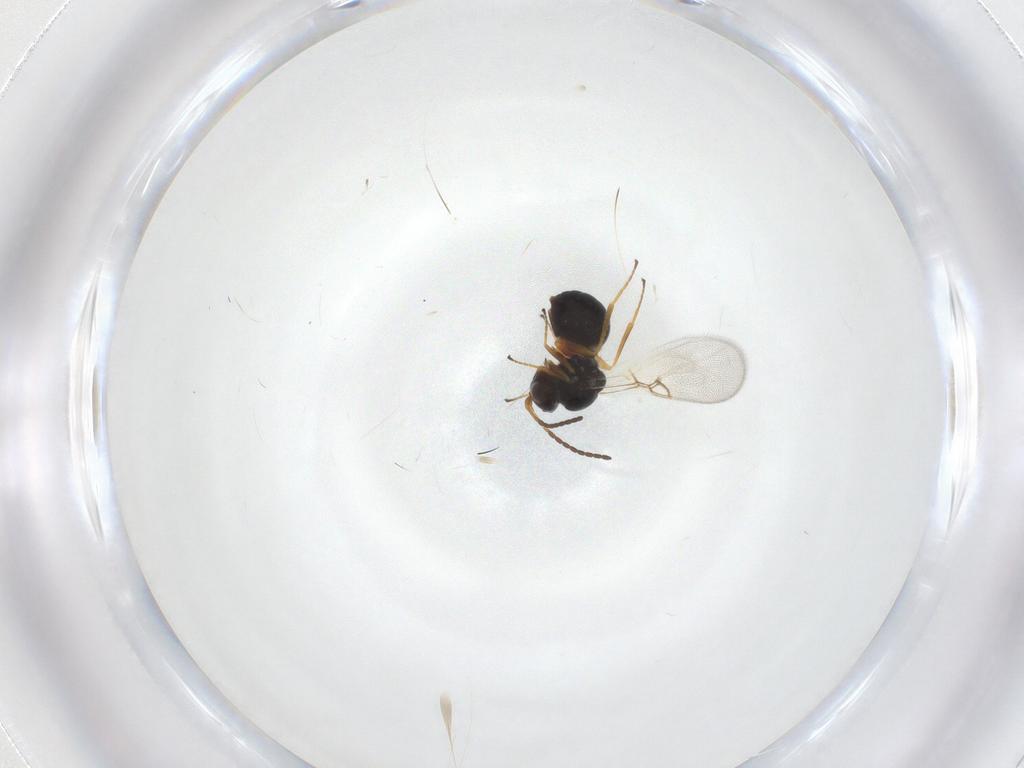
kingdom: Animalia
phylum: Arthropoda
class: Insecta
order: Hymenoptera
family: Figitidae
